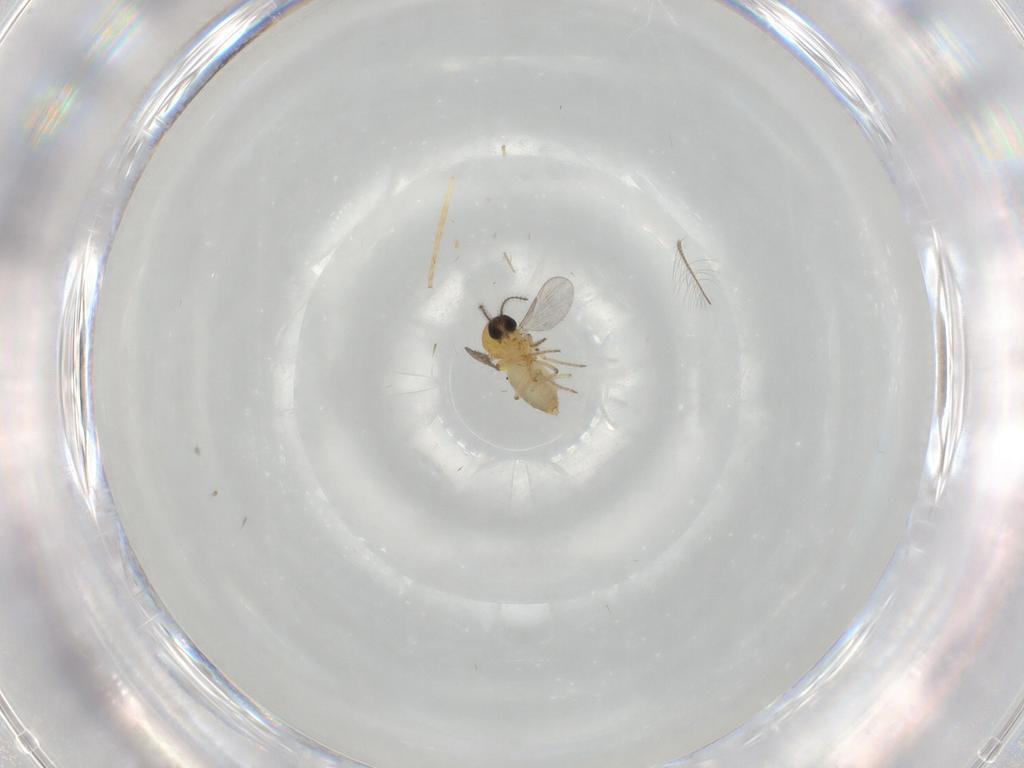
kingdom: Animalia
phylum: Arthropoda
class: Insecta
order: Diptera
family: Ceratopogonidae
